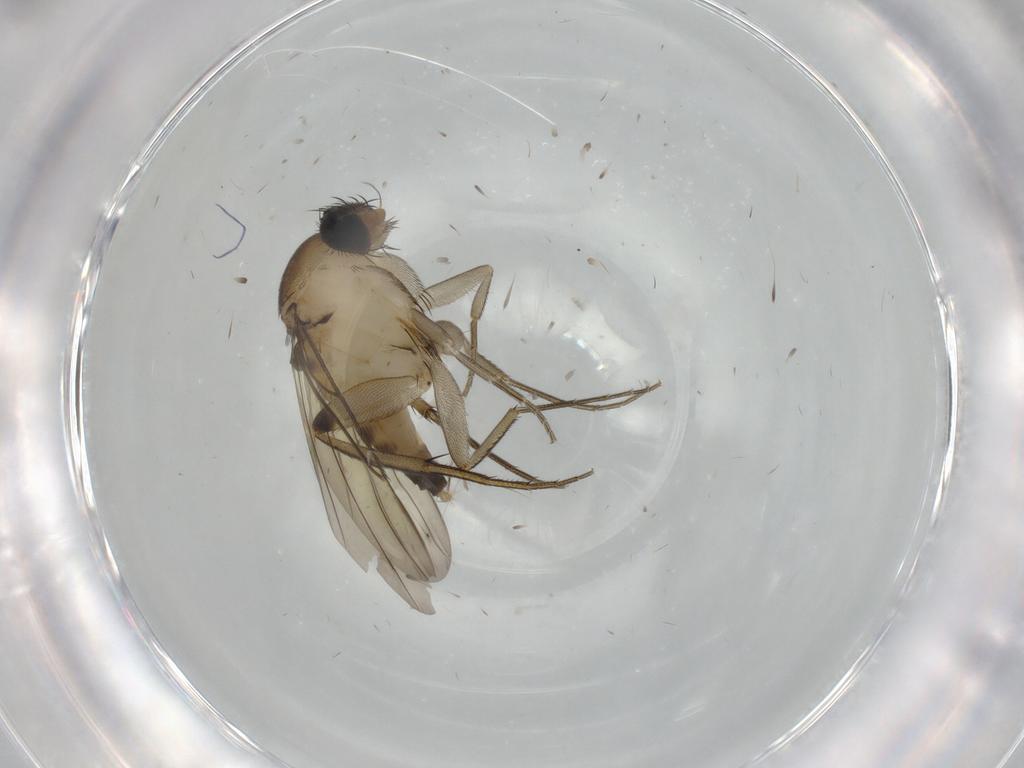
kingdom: Animalia
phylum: Arthropoda
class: Insecta
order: Diptera
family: Phoridae
